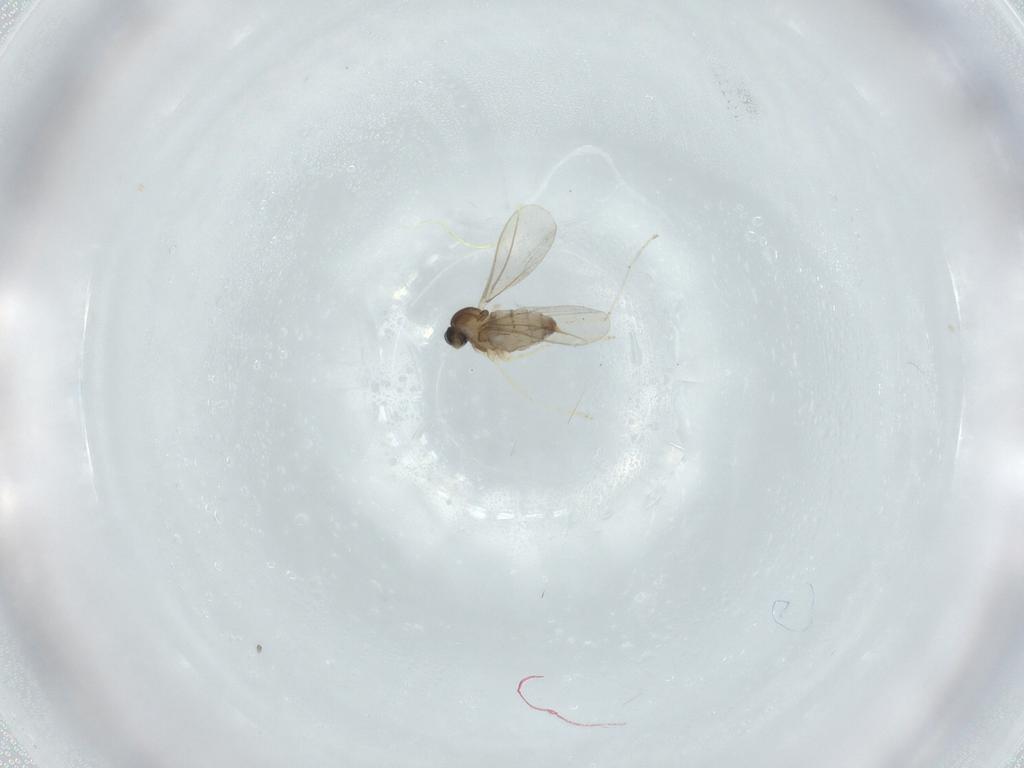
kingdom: Animalia
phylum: Arthropoda
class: Insecta
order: Diptera
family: Cecidomyiidae
